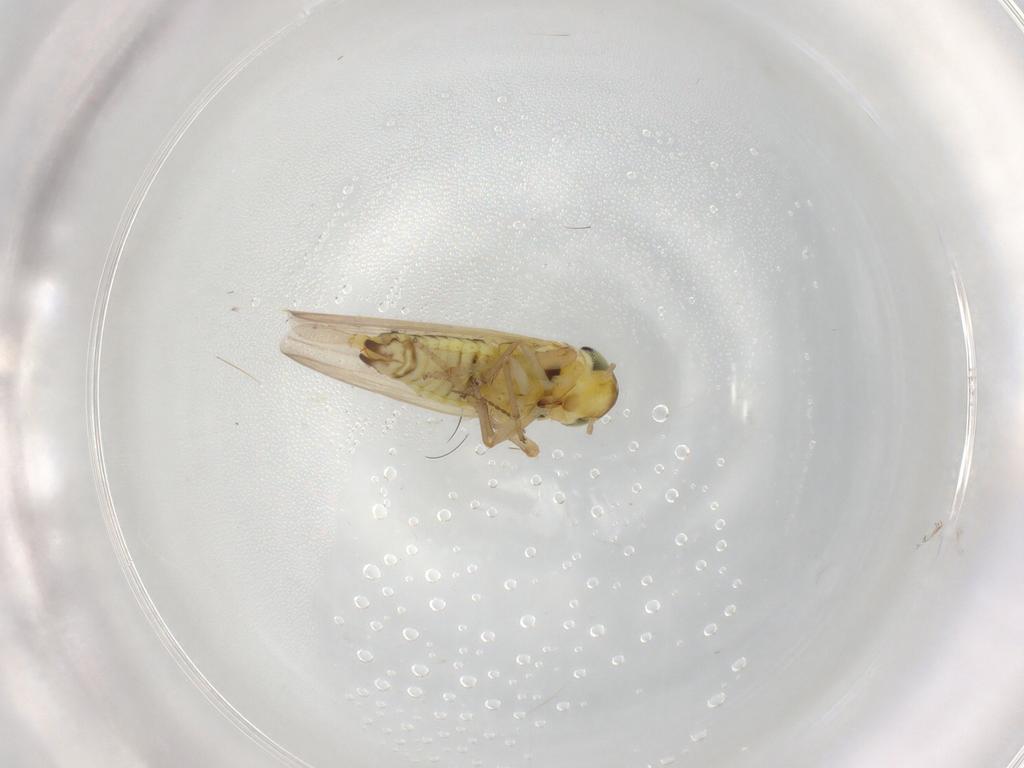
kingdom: Animalia
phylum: Arthropoda
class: Insecta
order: Hemiptera
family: Cicadellidae
